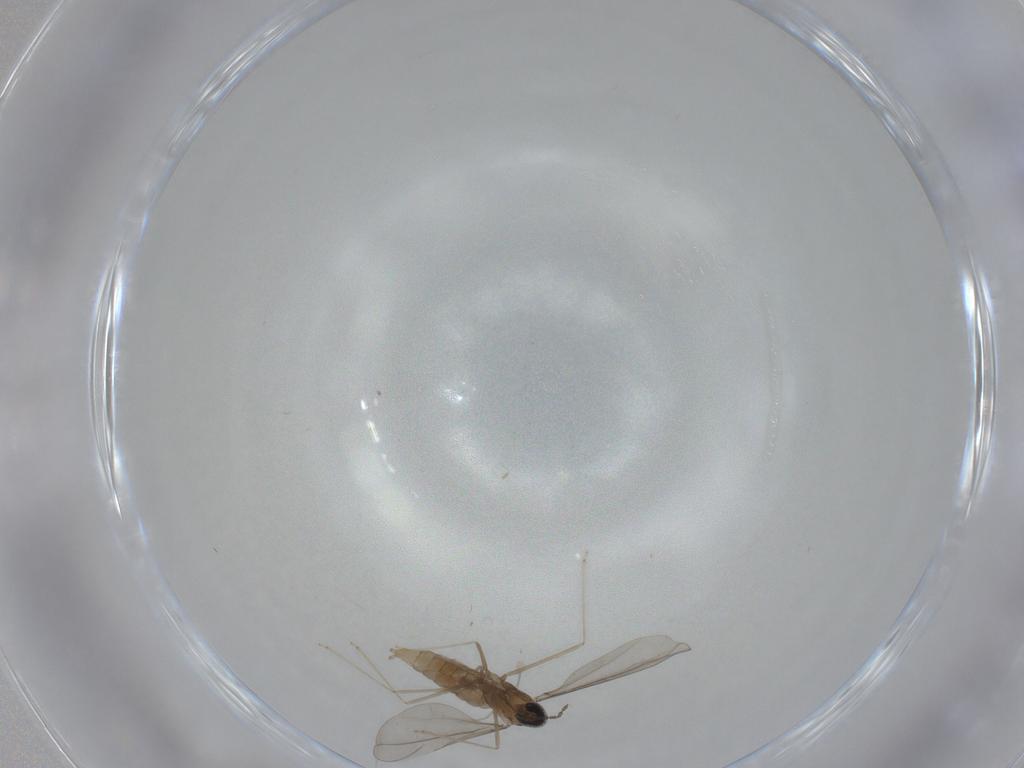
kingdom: Animalia
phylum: Arthropoda
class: Insecta
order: Diptera
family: Cecidomyiidae
